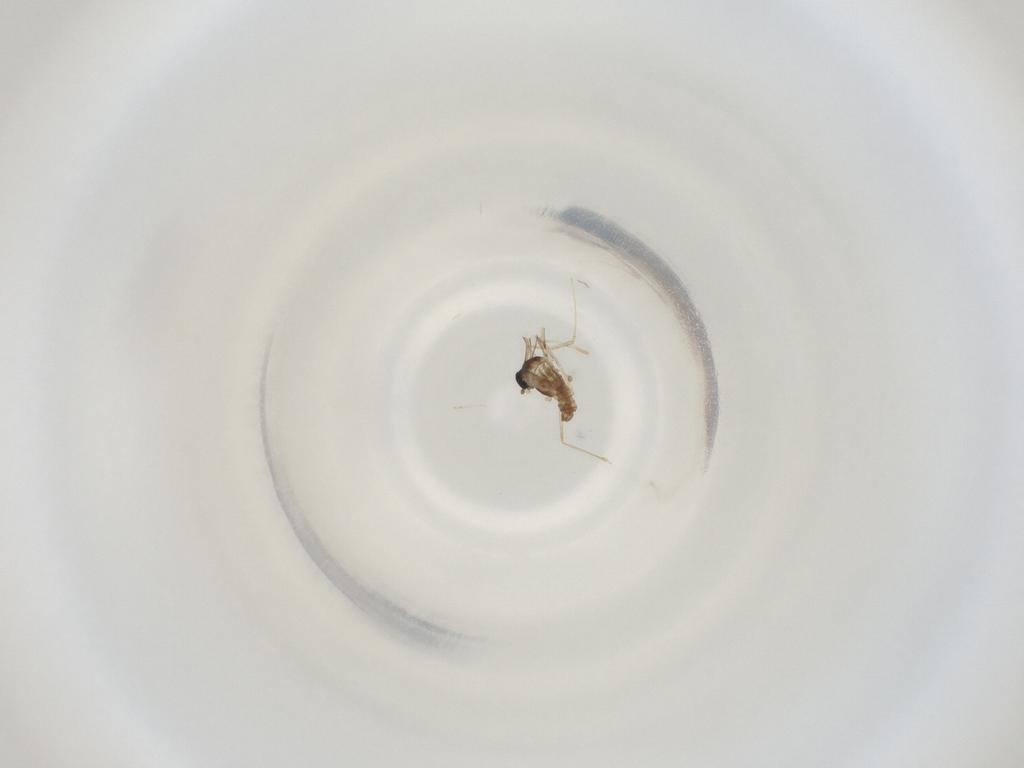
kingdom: Animalia
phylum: Arthropoda
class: Insecta
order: Diptera
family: Cecidomyiidae
